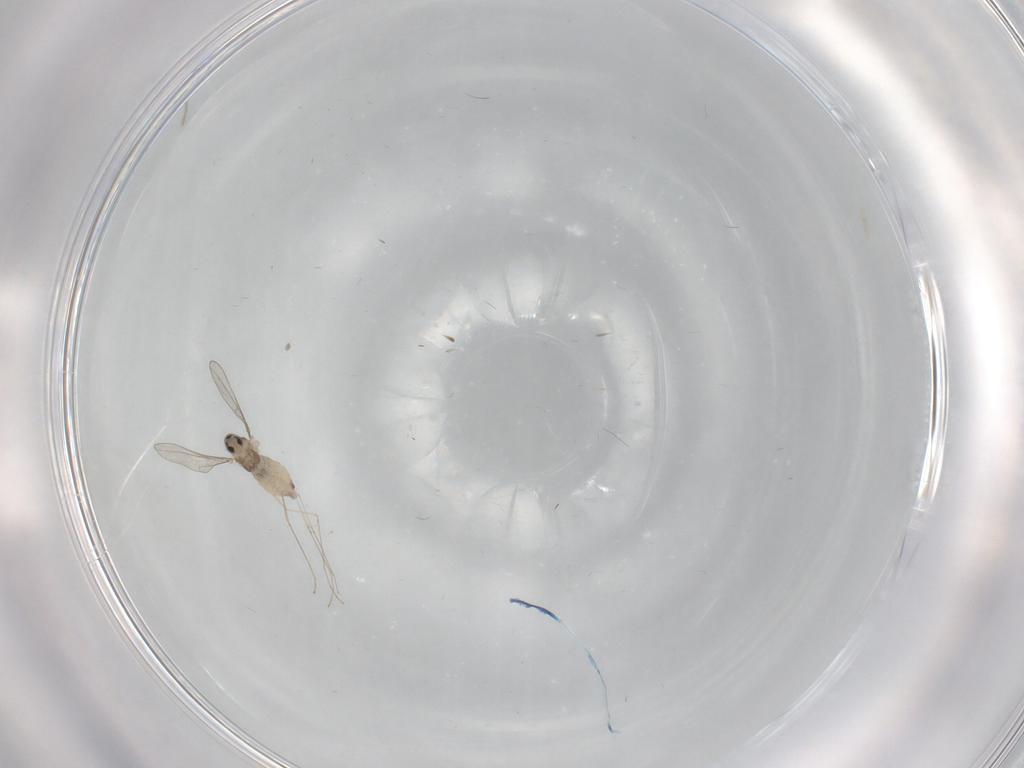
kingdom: Animalia
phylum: Arthropoda
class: Insecta
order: Diptera
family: Cecidomyiidae
